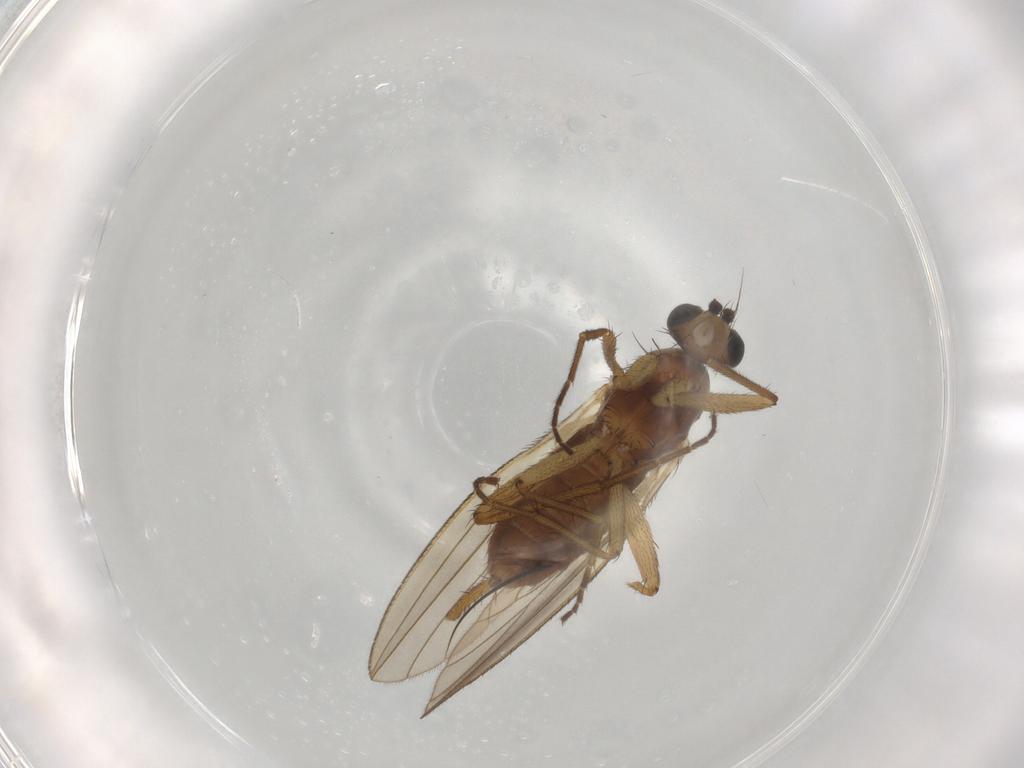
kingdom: Animalia
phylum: Arthropoda
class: Insecta
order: Diptera
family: Lonchopteridae
